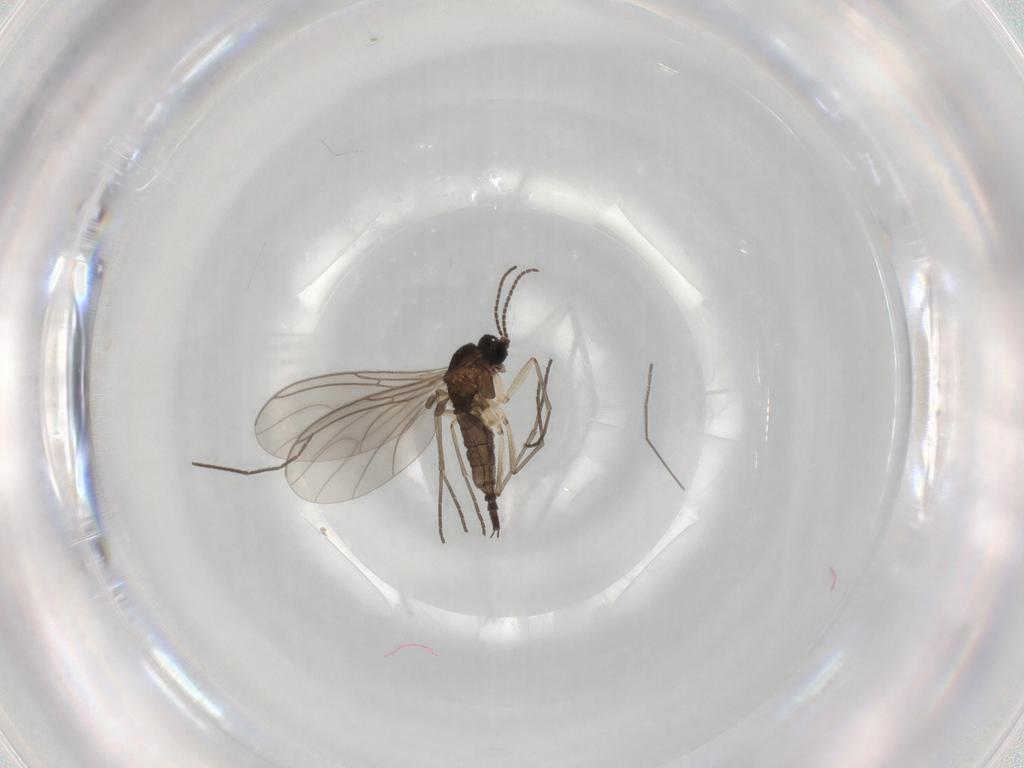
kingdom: Animalia
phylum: Arthropoda
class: Insecta
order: Diptera
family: Sciaridae
